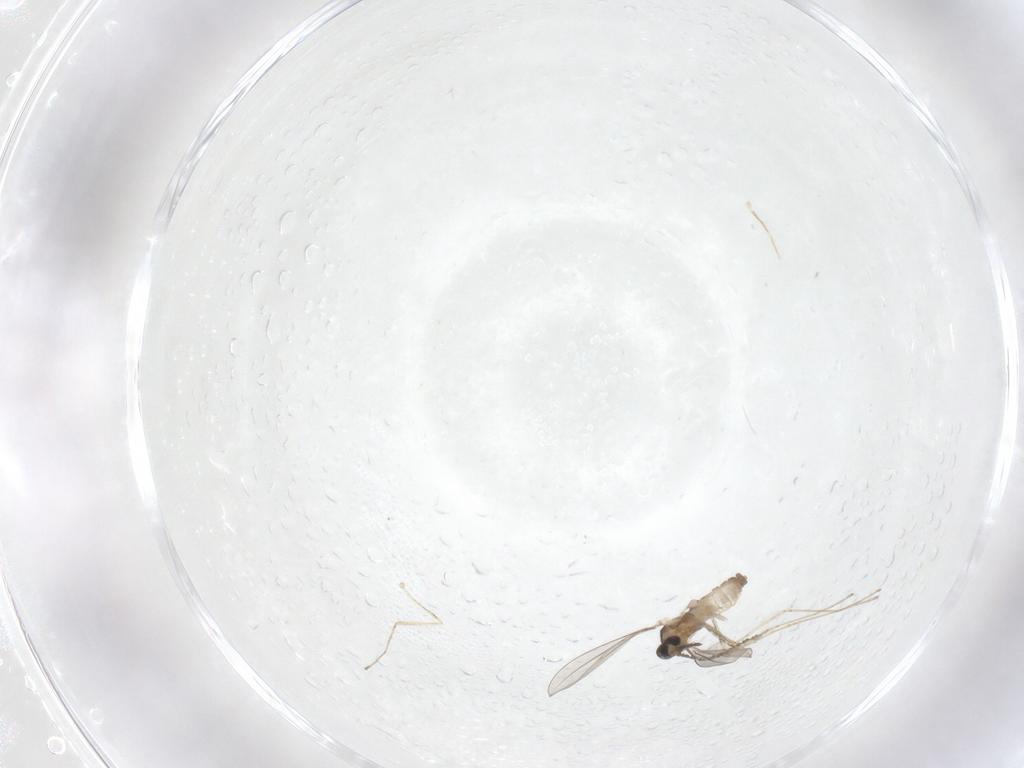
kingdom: Animalia
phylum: Arthropoda
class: Insecta
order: Diptera
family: Cecidomyiidae
